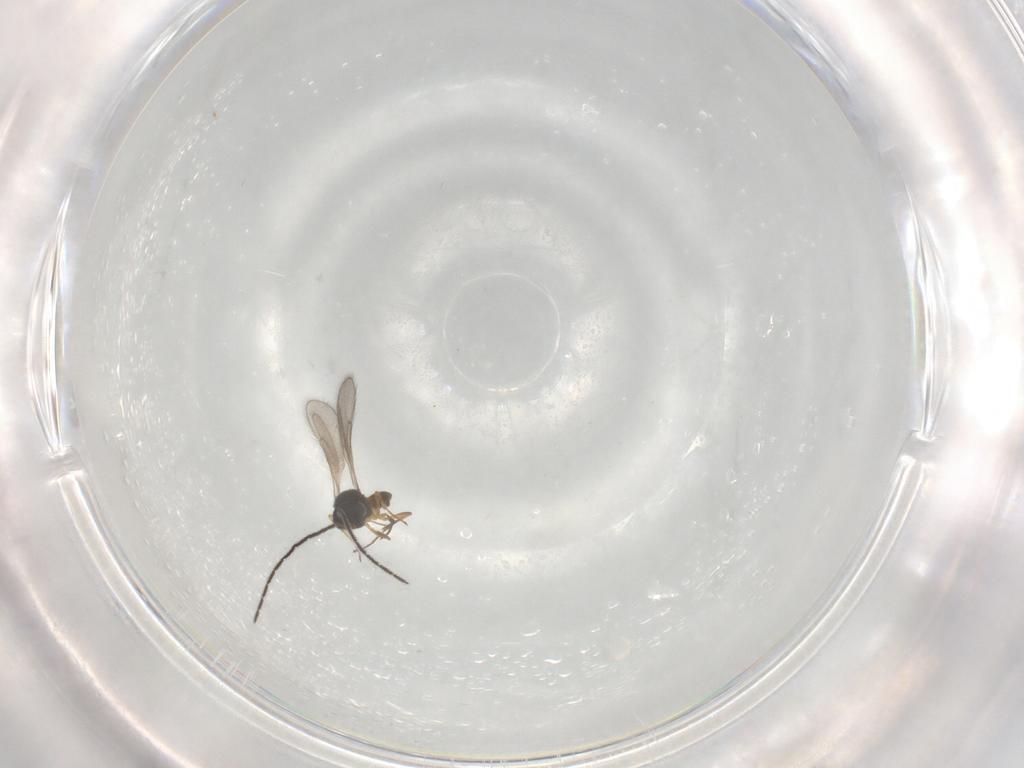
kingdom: Animalia
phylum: Arthropoda
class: Insecta
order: Hymenoptera
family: Scelionidae
